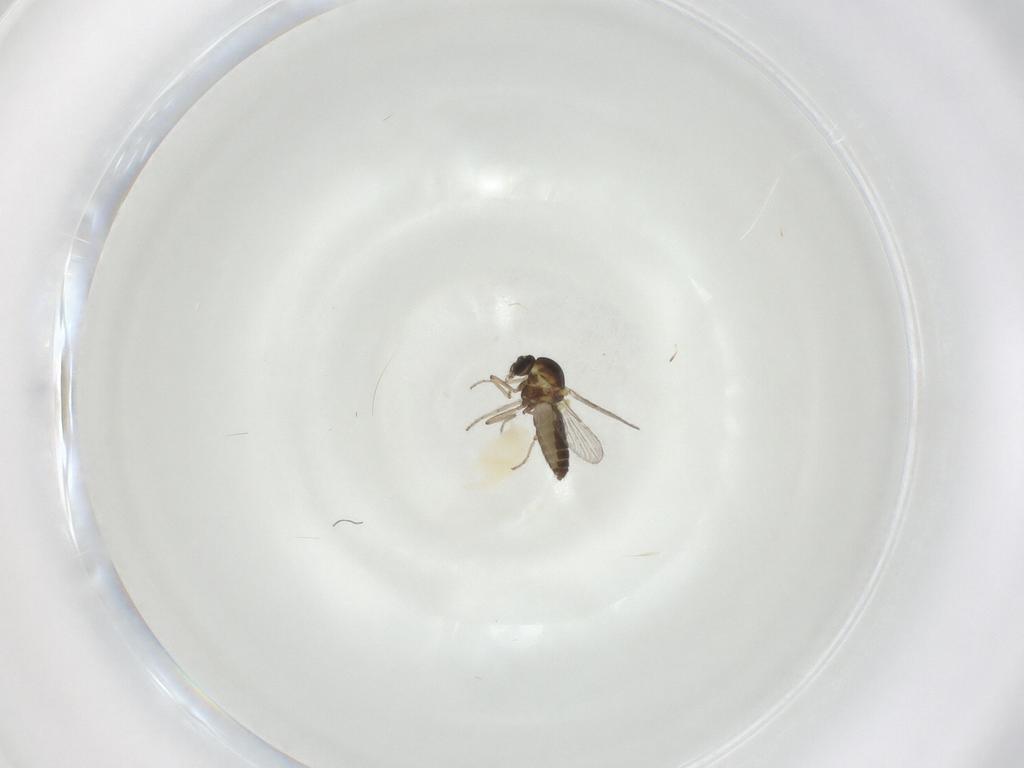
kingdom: Animalia
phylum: Arthropoda
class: Insecta
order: Diptera
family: Ceratopogonidae
